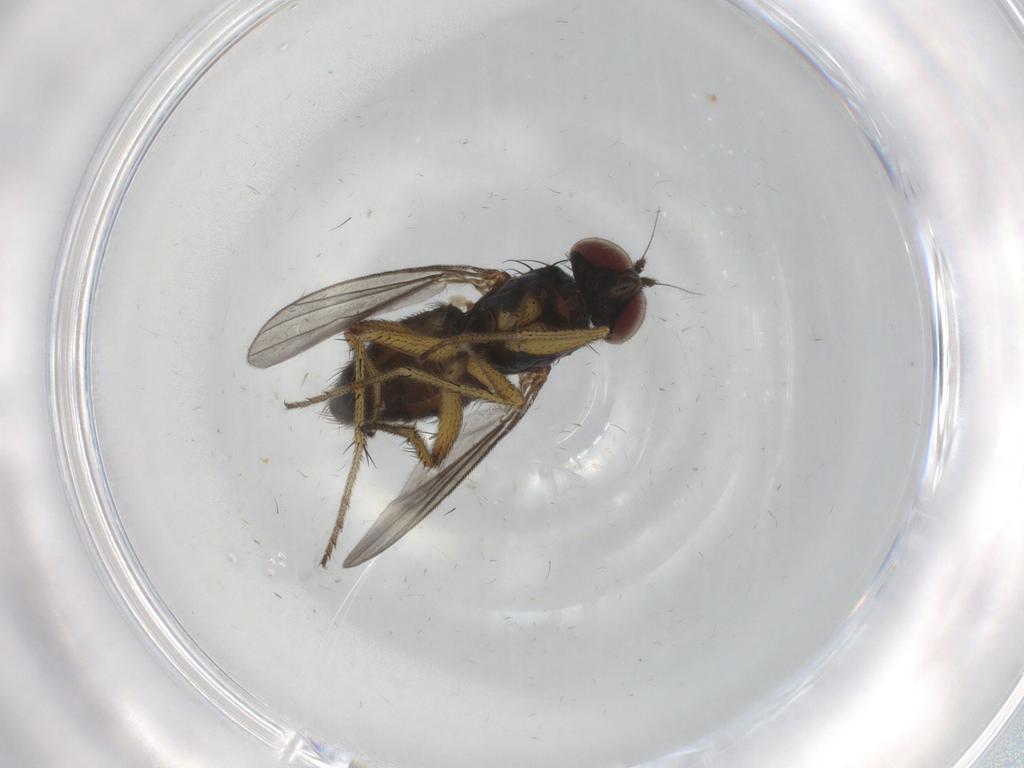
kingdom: Animalia
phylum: Arthropoda
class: Insecta
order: Diptera
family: Dolichopodidae
